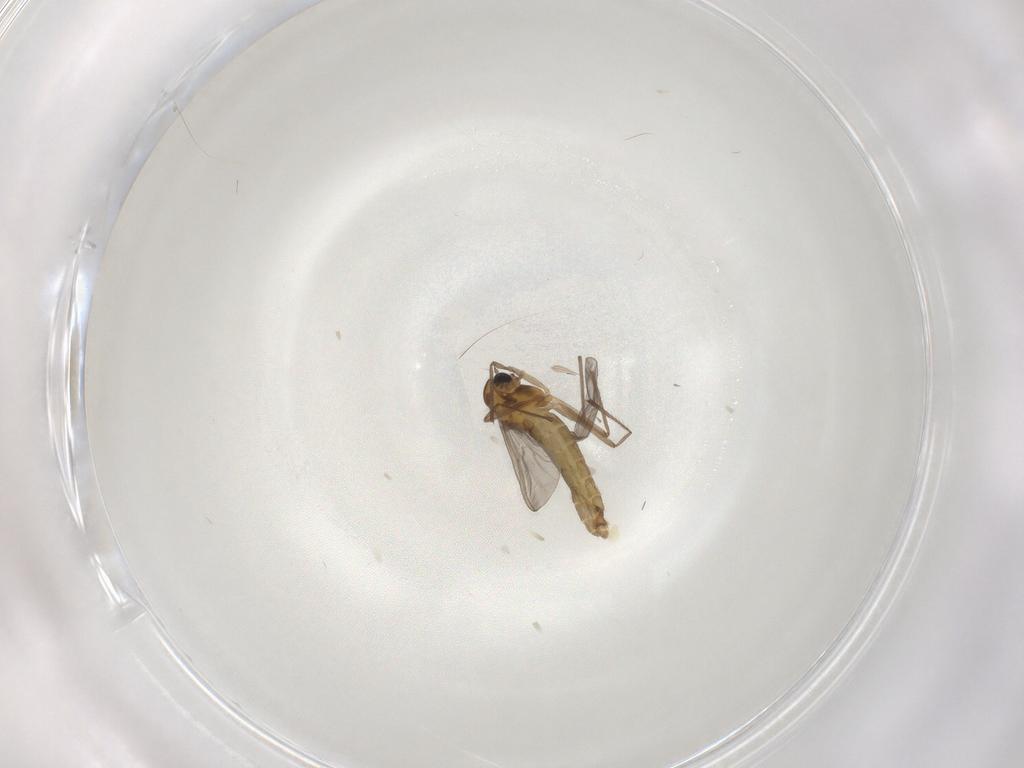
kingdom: Animalia
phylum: Arthropoda
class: Insecta
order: Diptera
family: Chironomidae
